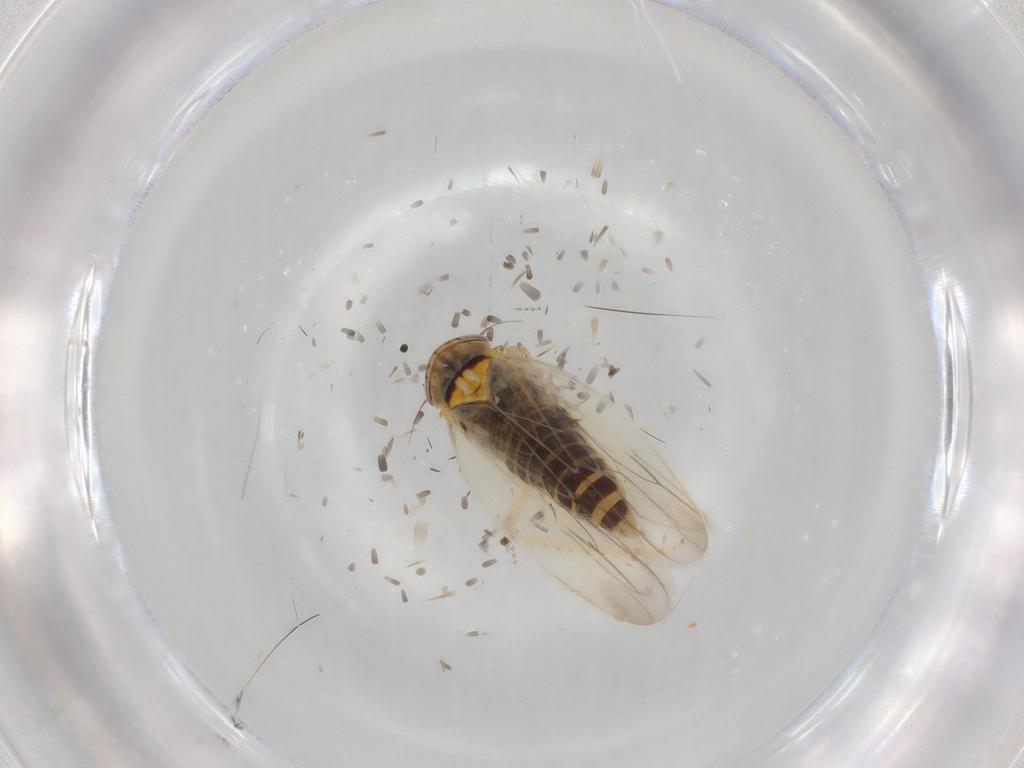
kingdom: Animalia
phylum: Arthropoda
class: Insecta
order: Hemiptera
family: Cicadellidae
